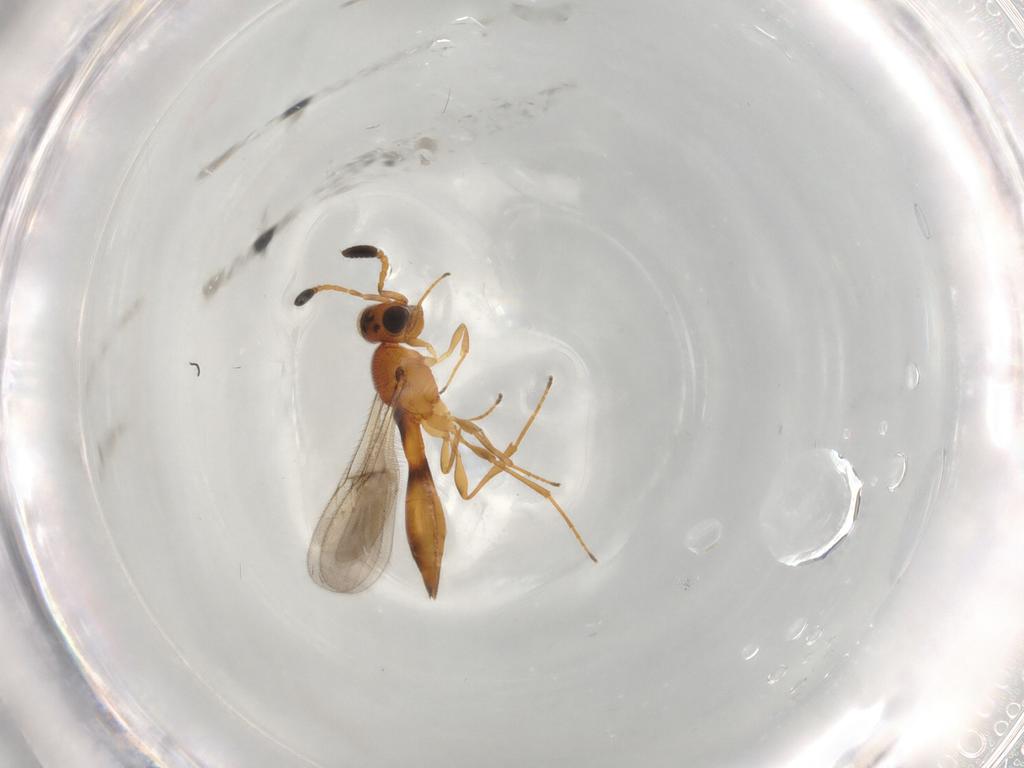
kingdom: Animalia
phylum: Arthropoda
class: Insecta
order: Hymenoptera
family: Scelionidae
